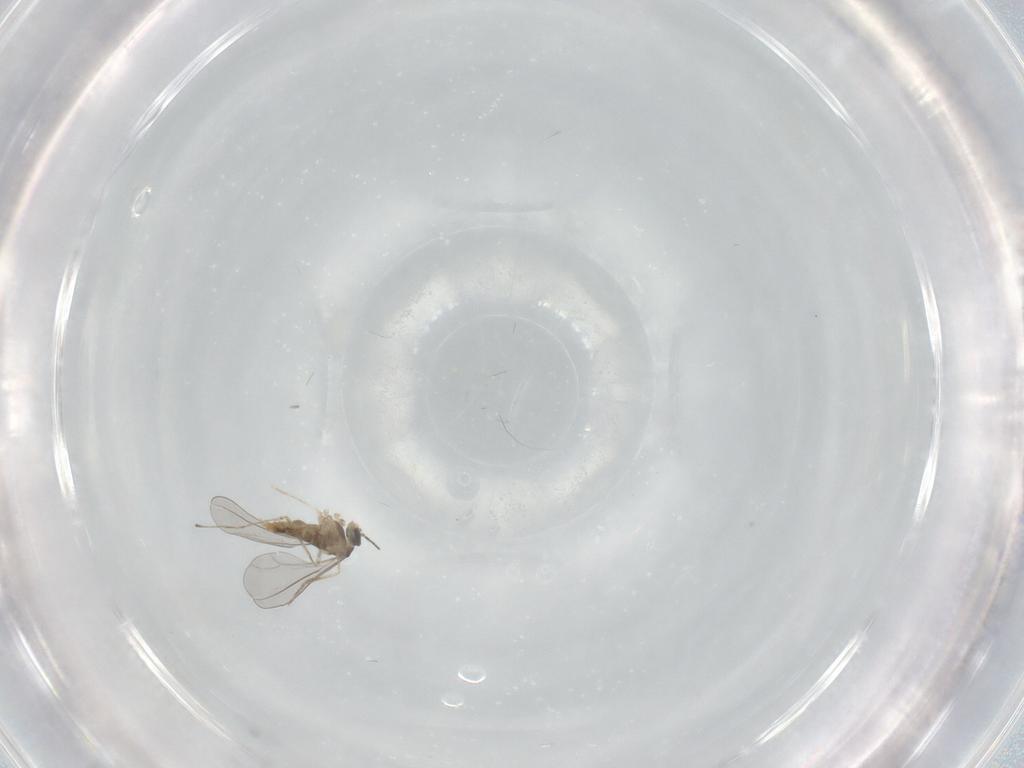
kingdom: Animalia
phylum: Arthropoda
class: Insecta
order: Diptera
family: Cecidomyiidae
